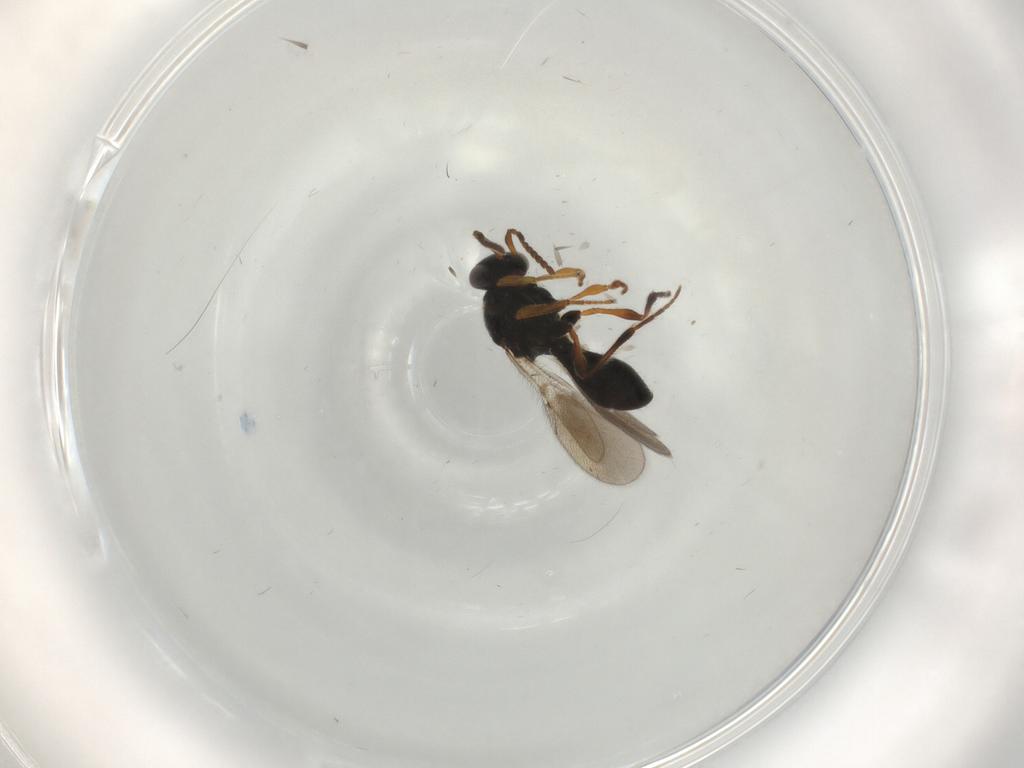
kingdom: Animalia
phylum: Arthropoda
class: Insecta
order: Hymenoptera
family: Platygastridae
